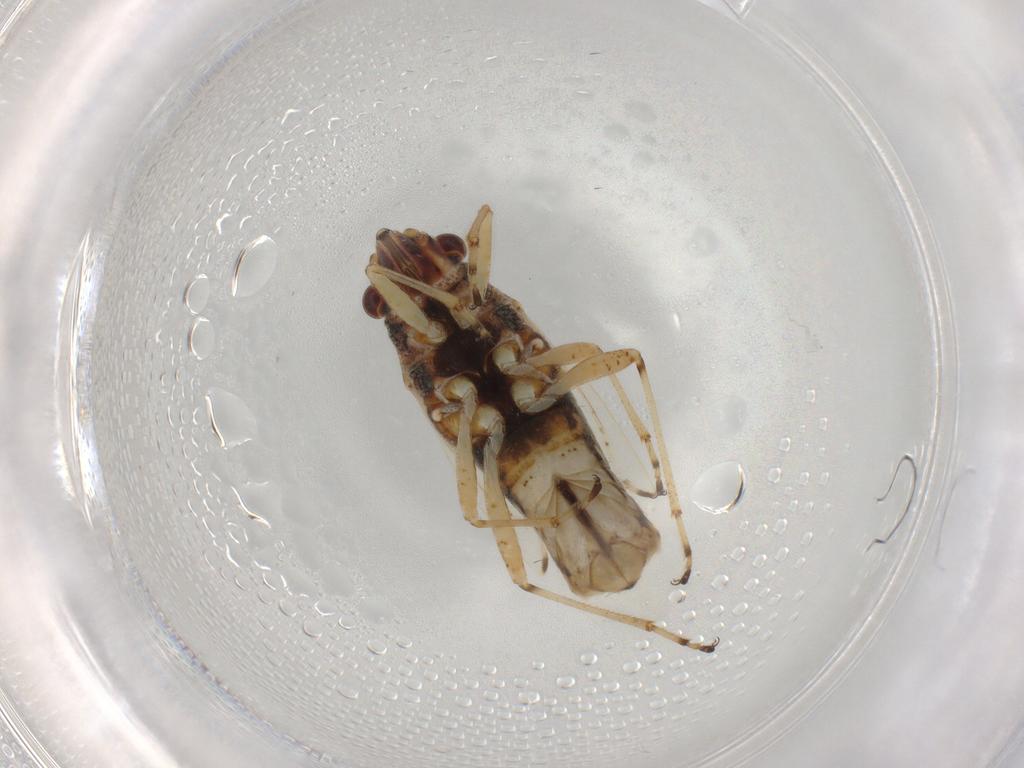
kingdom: Animalia
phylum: Arthropoda
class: Insecta
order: Hemiptera
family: Lygaeidae
